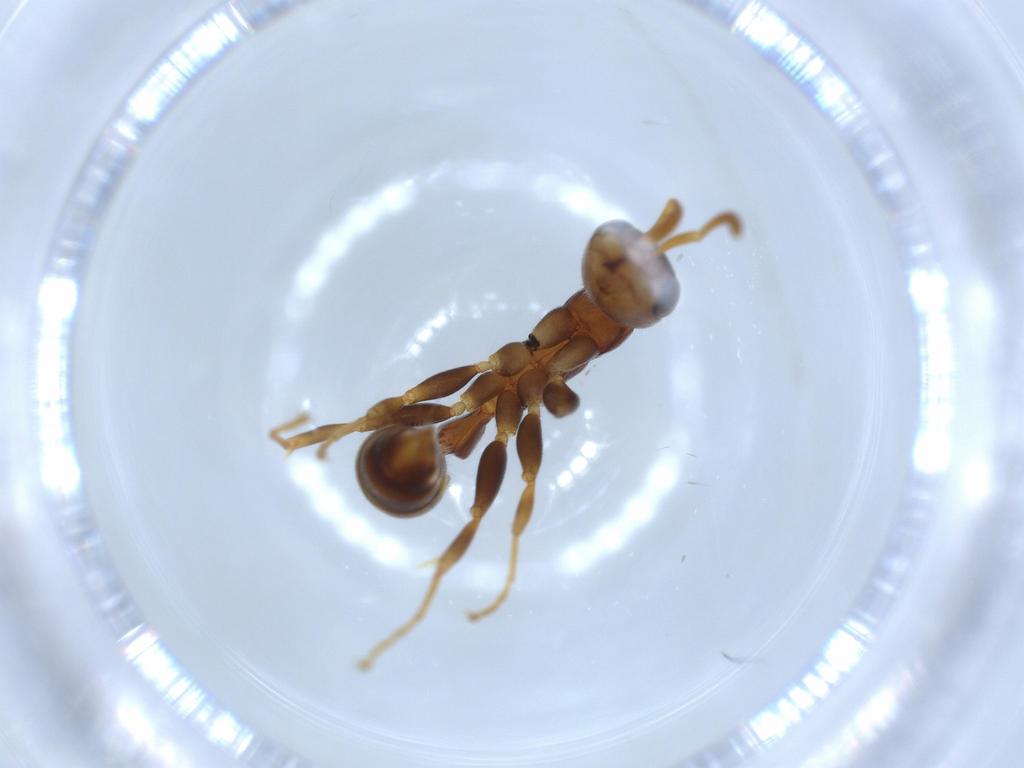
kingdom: Animalia
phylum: Arthropoda
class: Insecta
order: Hymenoptera
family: Formicidae
